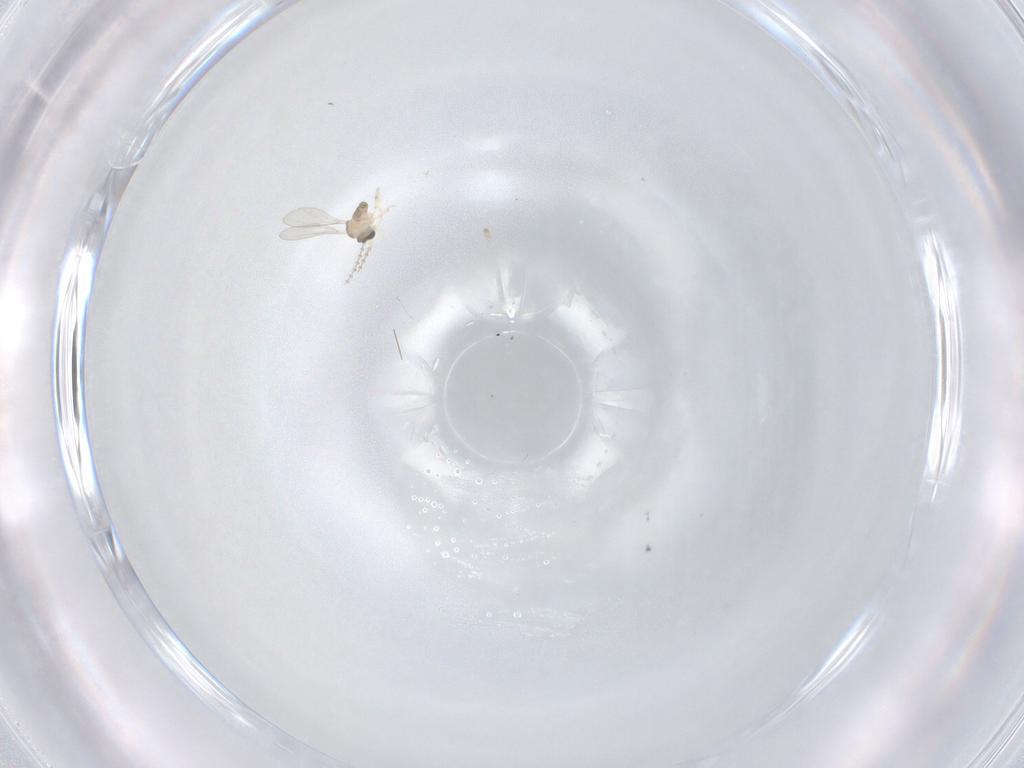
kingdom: Animalia
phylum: Arthropoda
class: Insecta
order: Diptera
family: Cecidomyiidae
